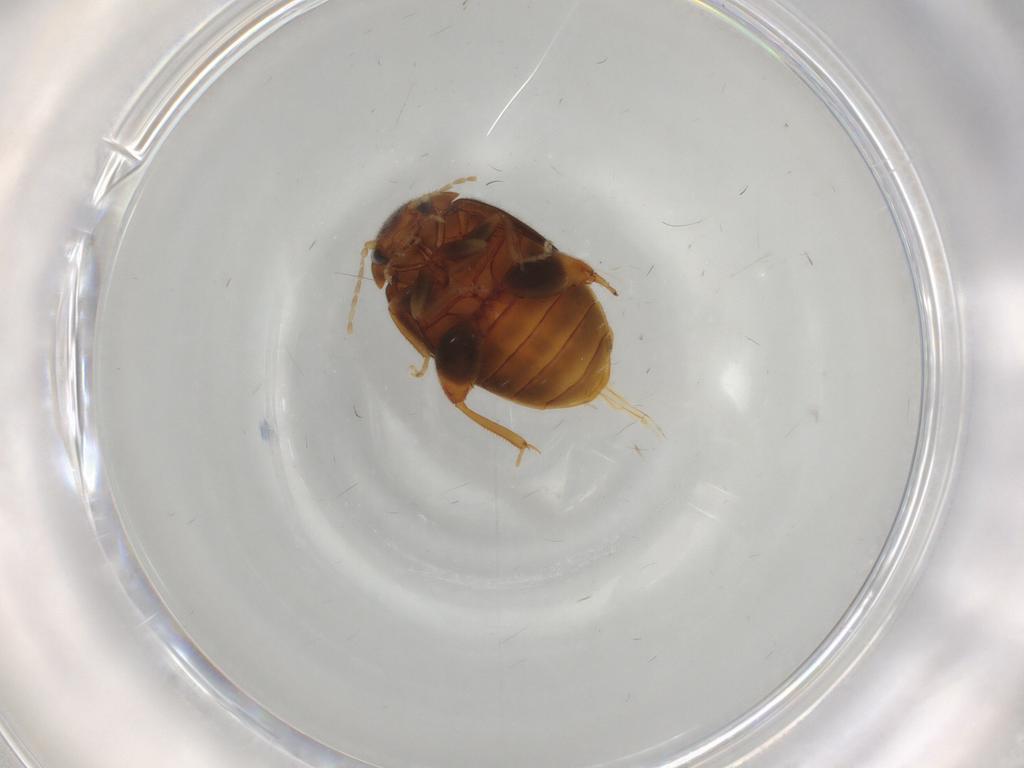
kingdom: Animalia
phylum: Arthropoda
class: Insecta
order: Coleoptera
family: Scirtidae
